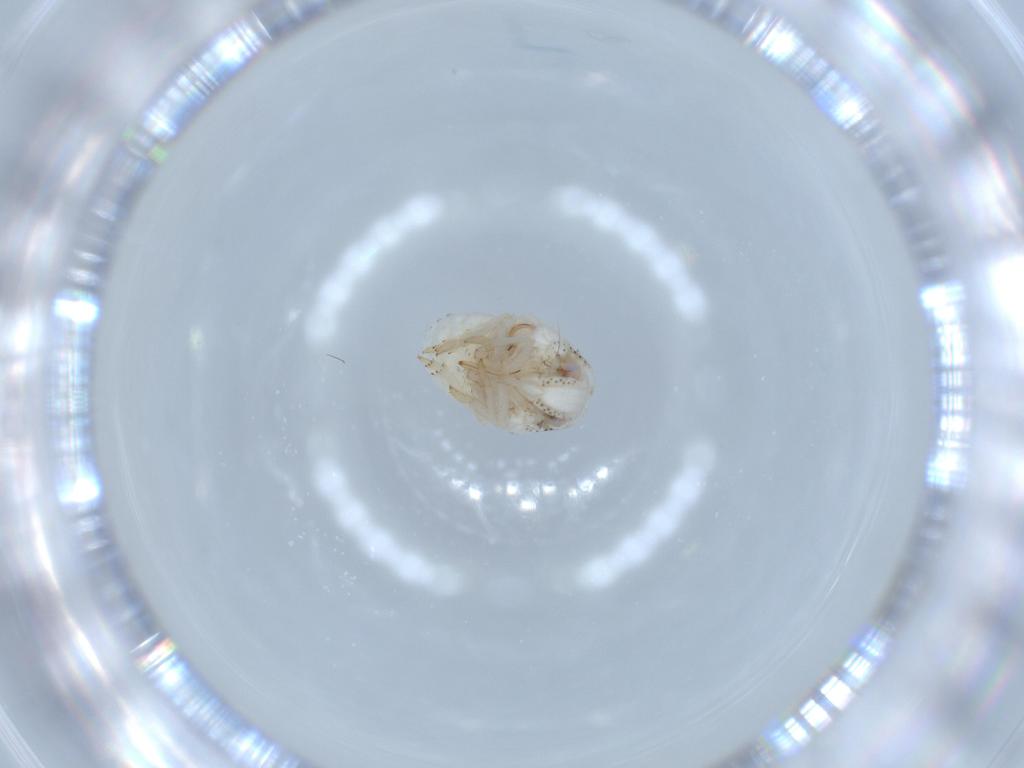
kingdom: Animalia
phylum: Arthropoda
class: Insecta
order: Hemiptera
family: Acanaloniidae
